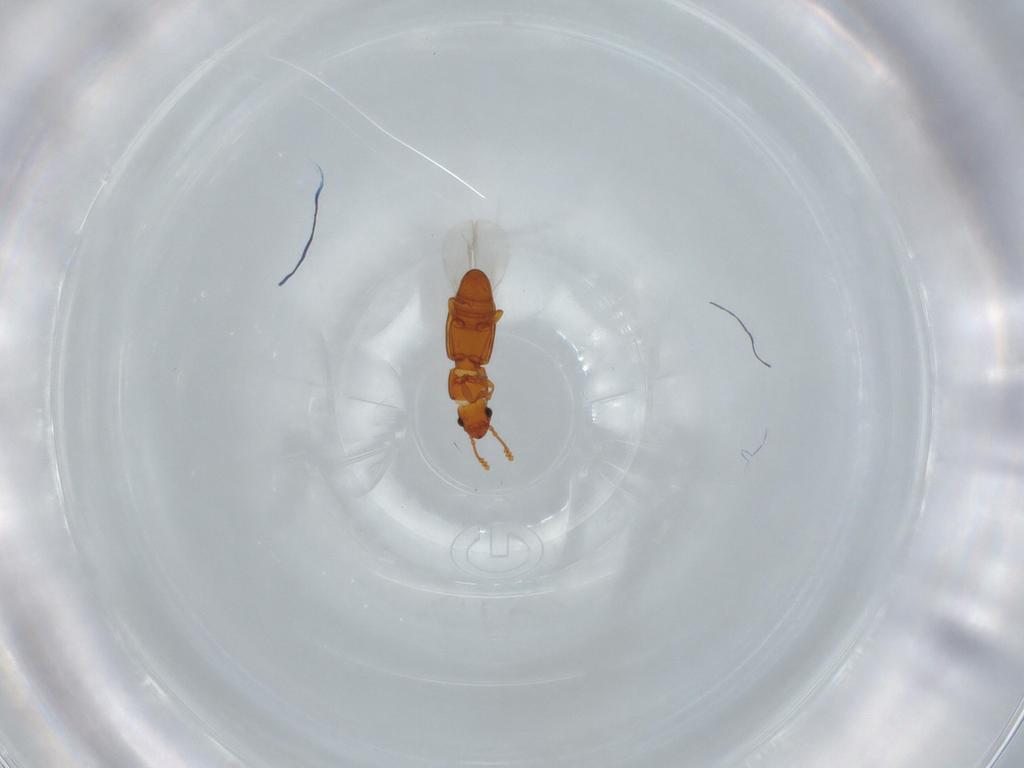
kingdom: Animalia
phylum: Arthropoda
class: Insecta
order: Coleoptera
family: Smicripidae
